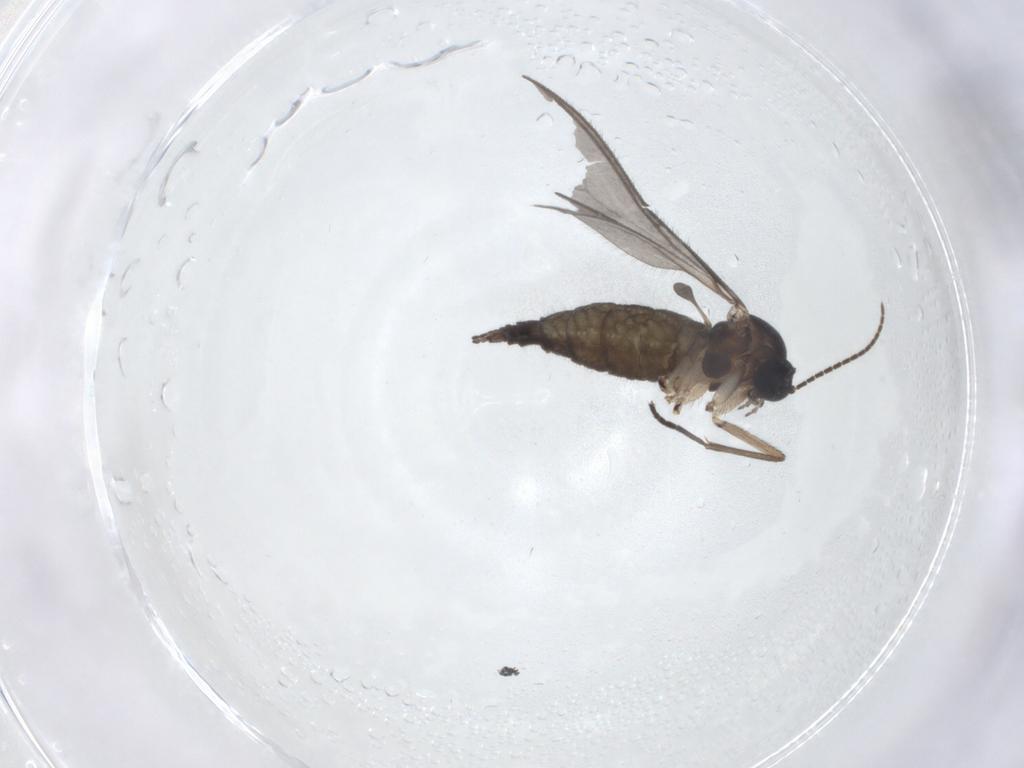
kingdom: Animalia
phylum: Arthropoda
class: Insecta
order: Diptera
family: Sciaridae
